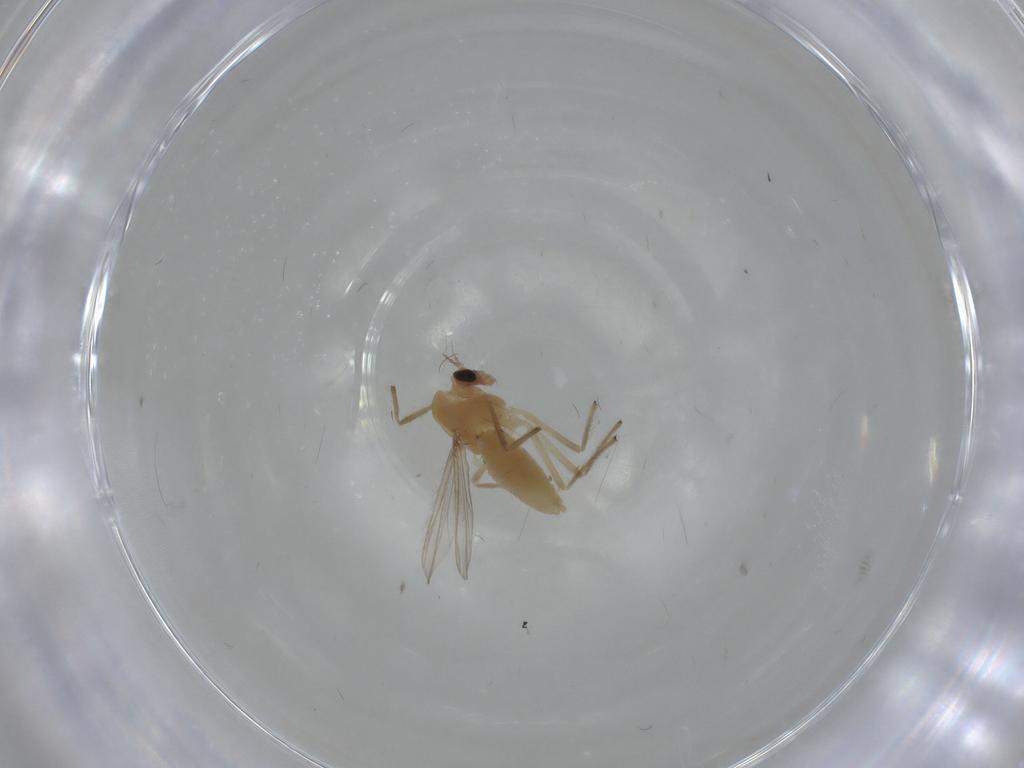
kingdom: Animalia
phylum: Arthropoda
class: Insecta
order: Diptera
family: Chironomidae
